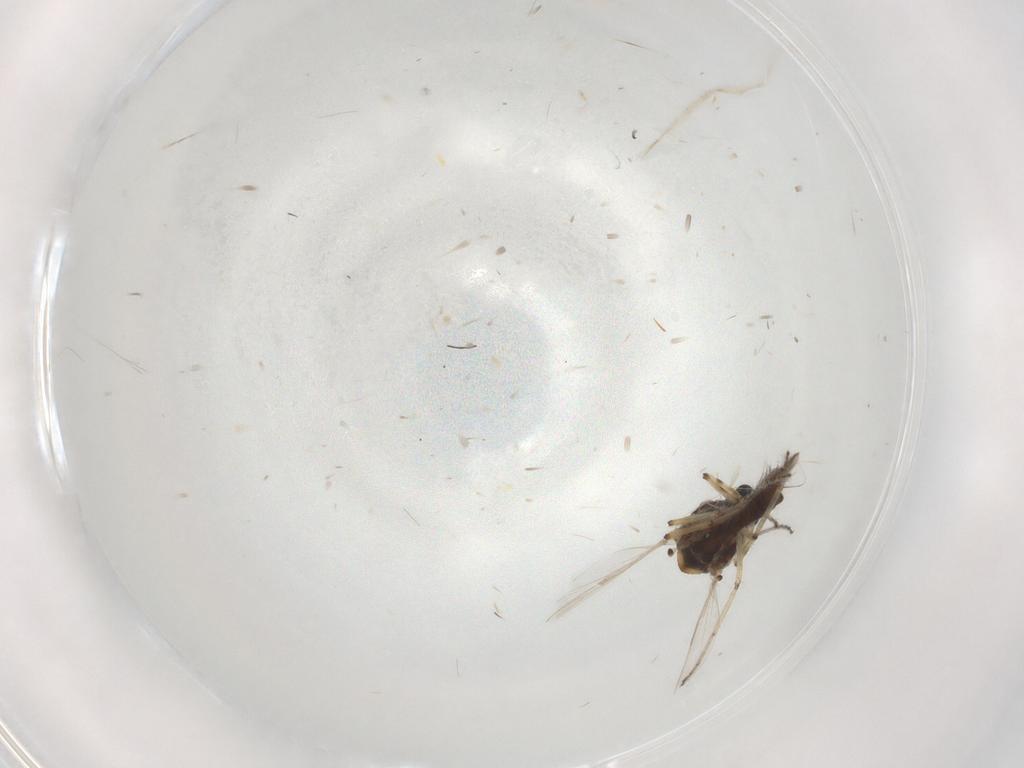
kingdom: Animalia
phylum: Arthropoda
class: Insecta
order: Diptera
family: Ceratopogonidae
